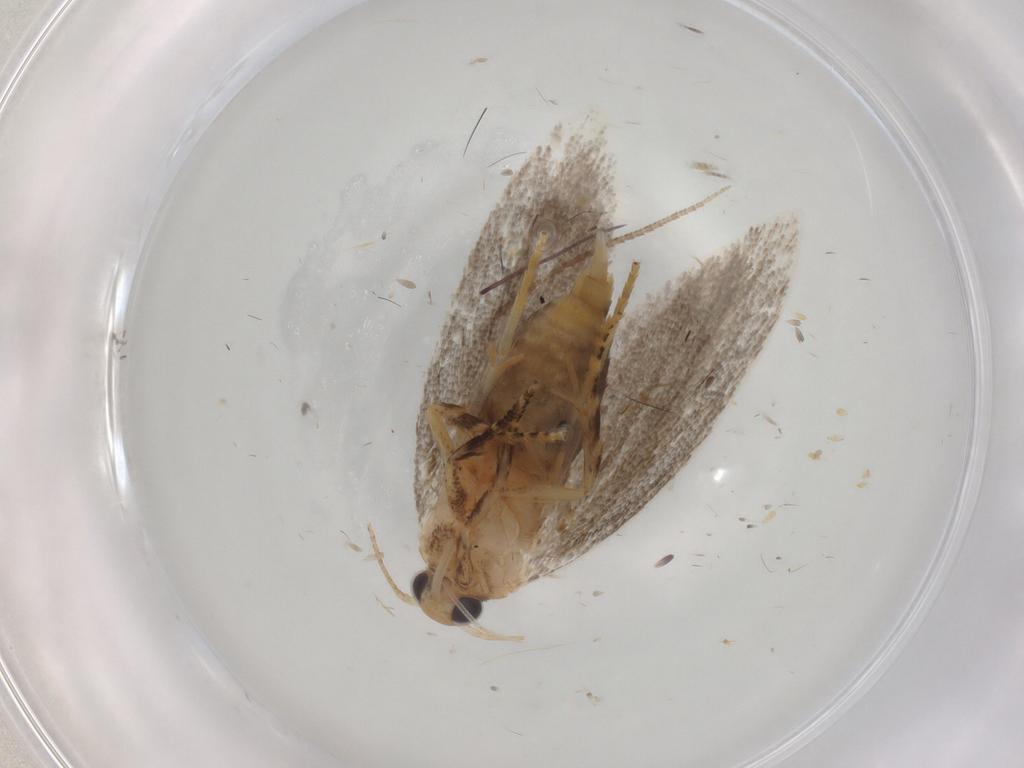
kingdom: Animalia
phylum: Arthropoda
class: Insecta
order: Lepidoptera
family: Oecophoridae
